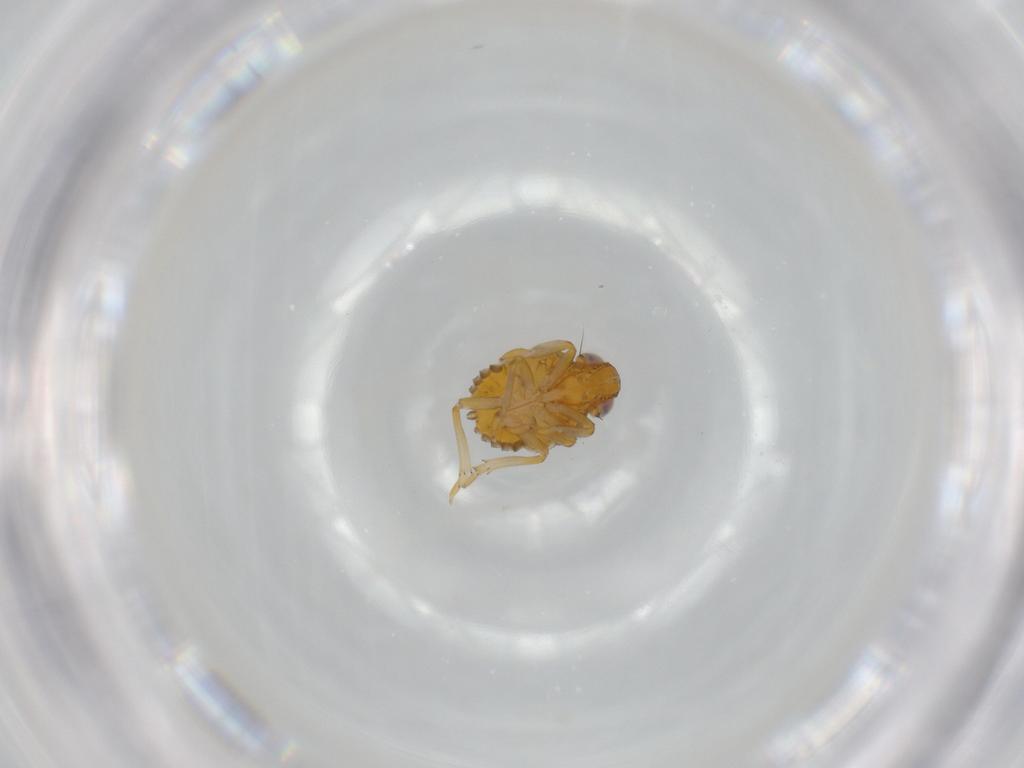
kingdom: Animalia
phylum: Arthropoda
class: Insecta
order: Hemiptera
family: Issidae
